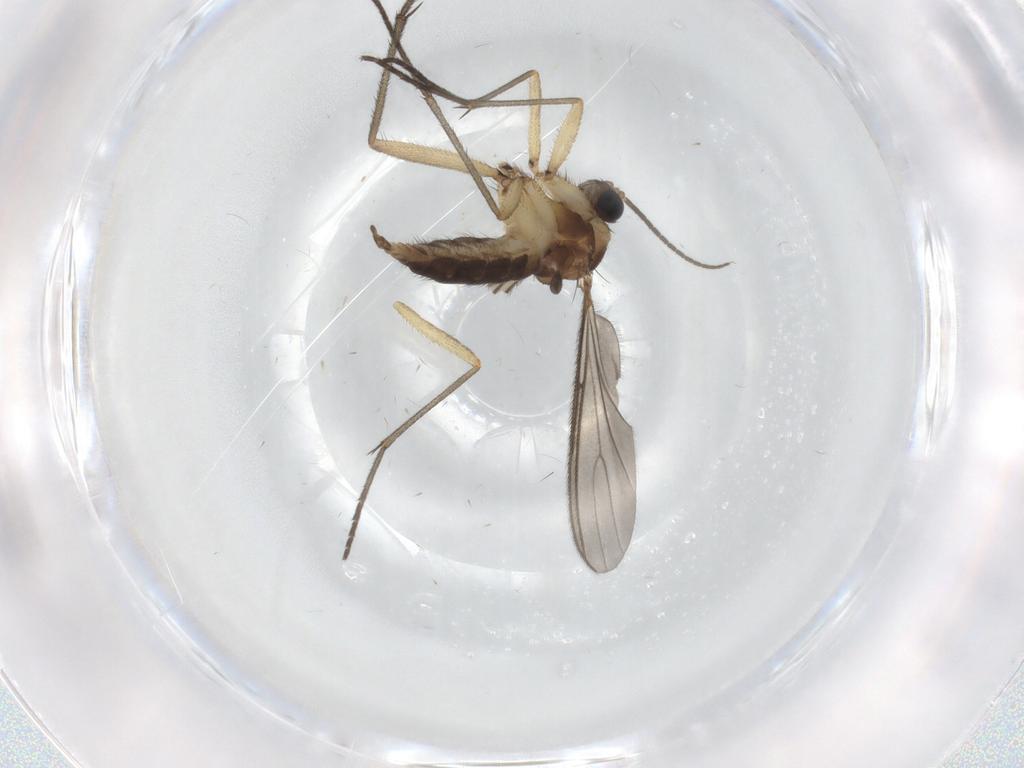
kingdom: Animalia
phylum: Arthropoda
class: Insecta
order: Diptera
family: Sciaridae
